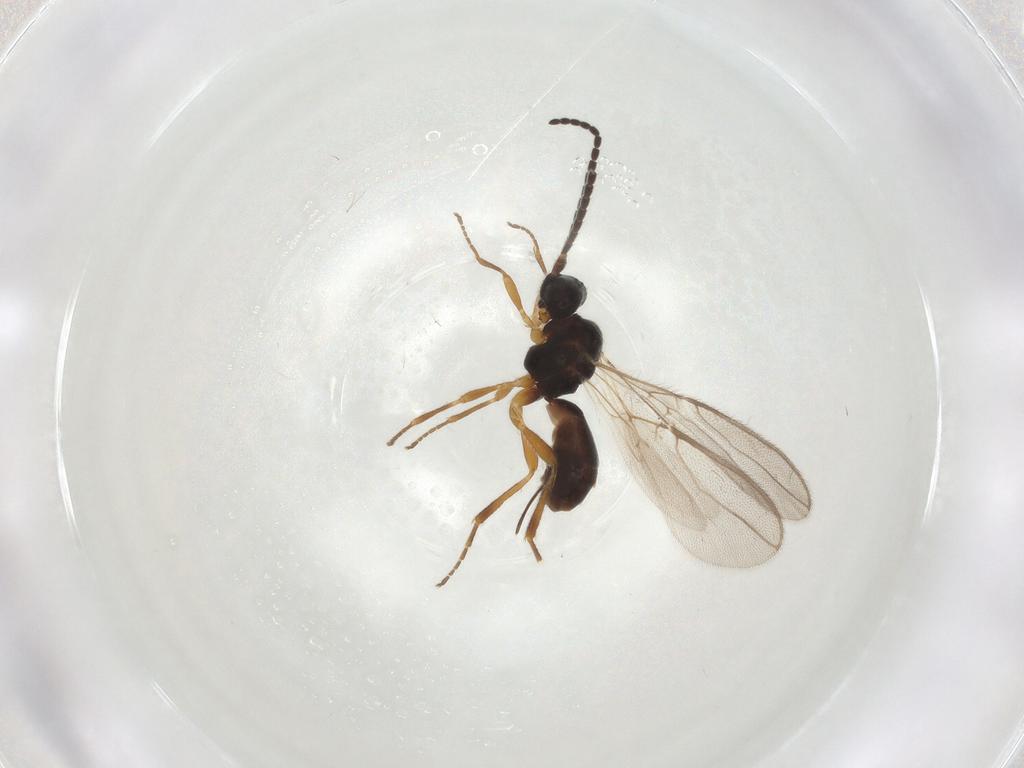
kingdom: Animalia
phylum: Arthropoda
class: Insecta
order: Hymenoptera
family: Braconidae
